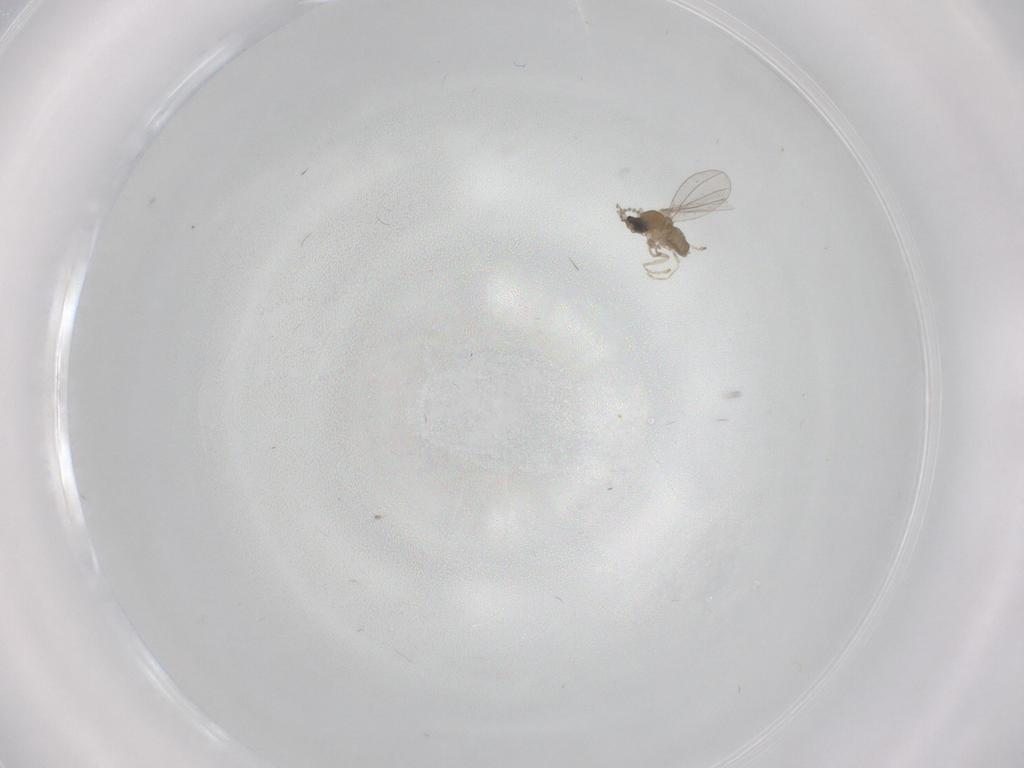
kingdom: Animalia
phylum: Arthropoda
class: Insecta
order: Diptera
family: Cecidomyiidae
